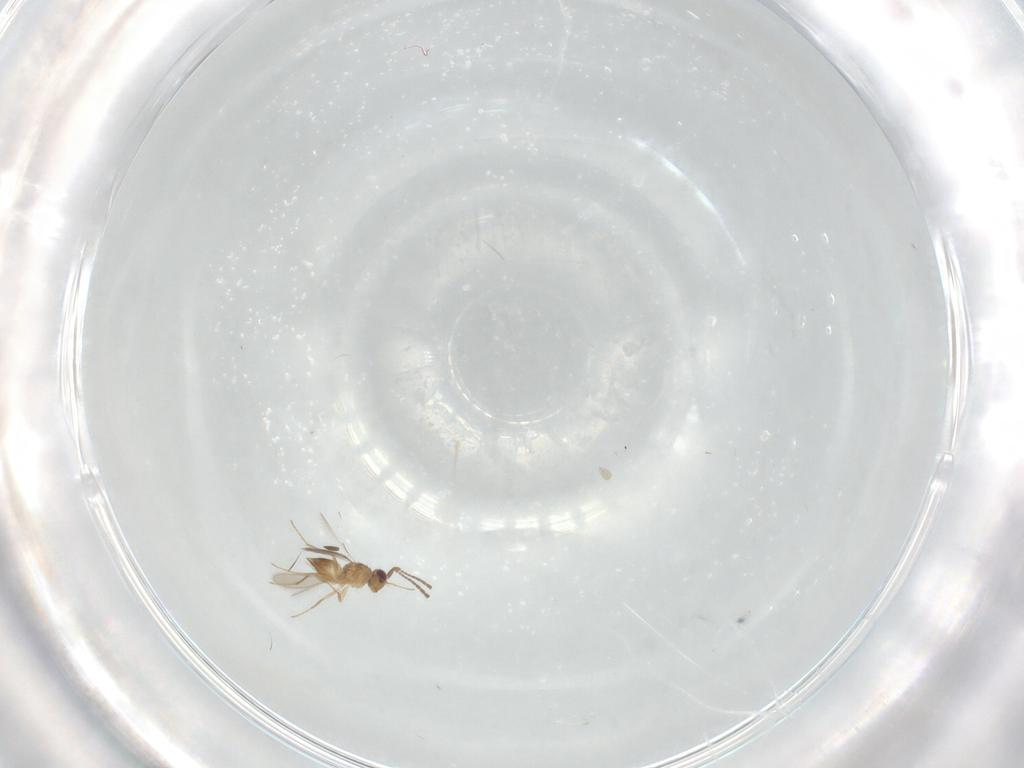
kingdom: Animalia
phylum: Arthropoda
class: Insecta
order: Hymenoptera
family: Mymaridae
